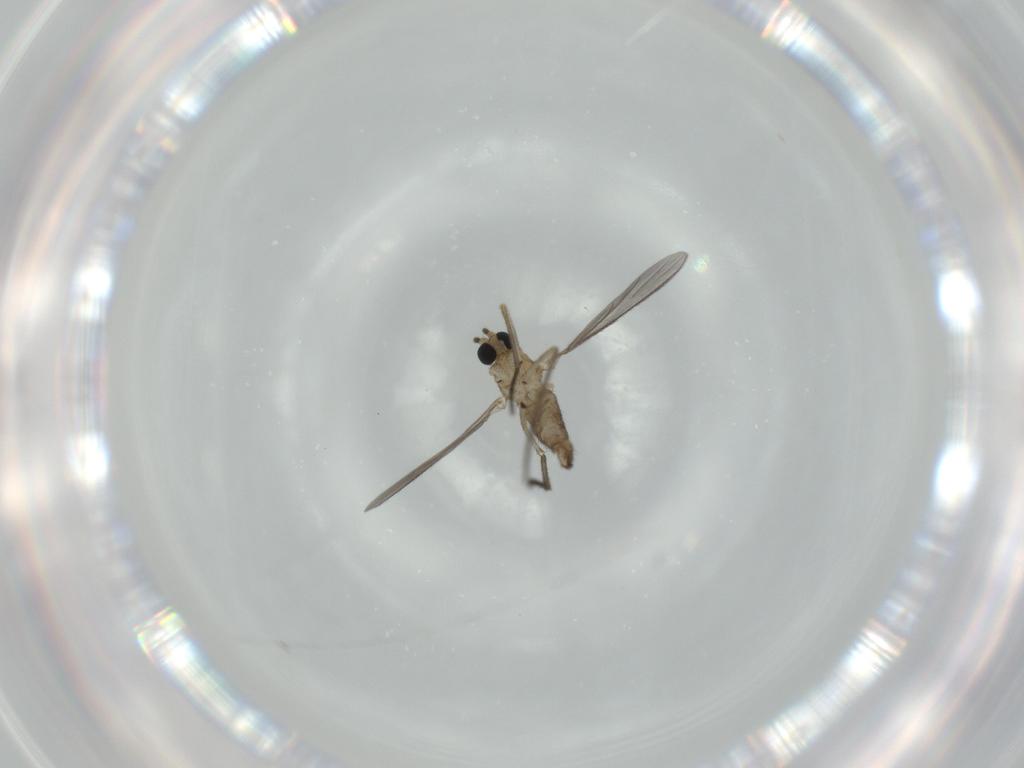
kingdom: Animalia
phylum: Arthropoda
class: Insecta
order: Diptera
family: Sciaridae
